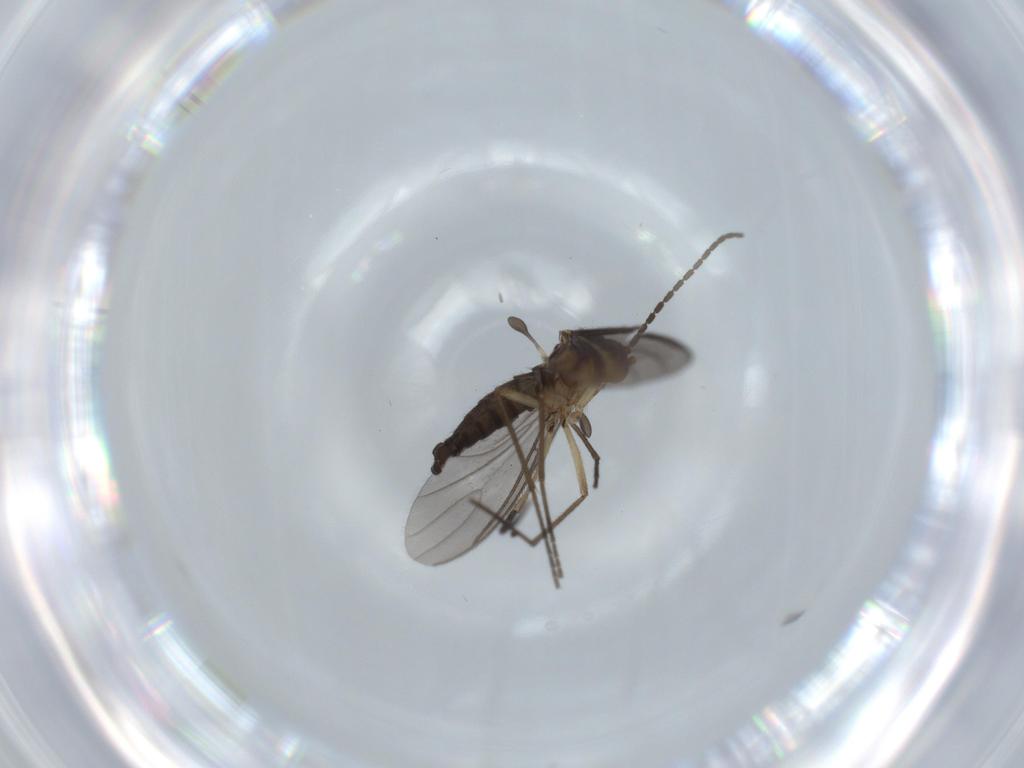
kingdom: Animalia
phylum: Arthropoda
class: Insecta
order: Diptera
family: Sciaridae
